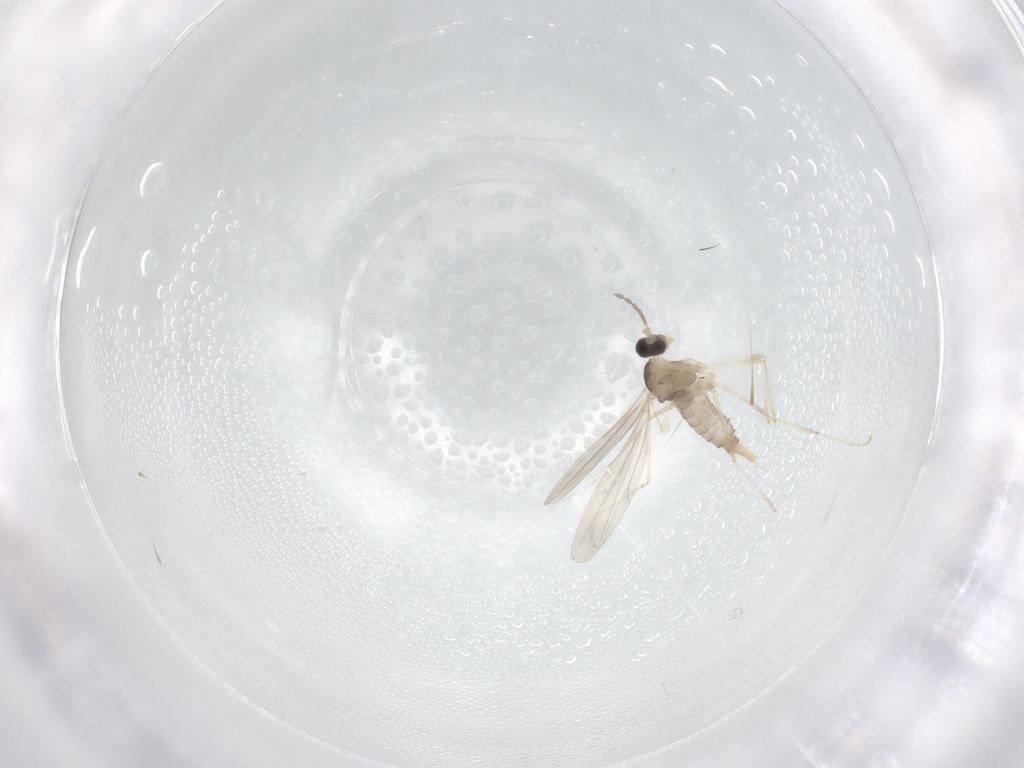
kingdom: Animalia
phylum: Arthropoda
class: Insecta
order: Diptera
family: Cecidomyiidae
